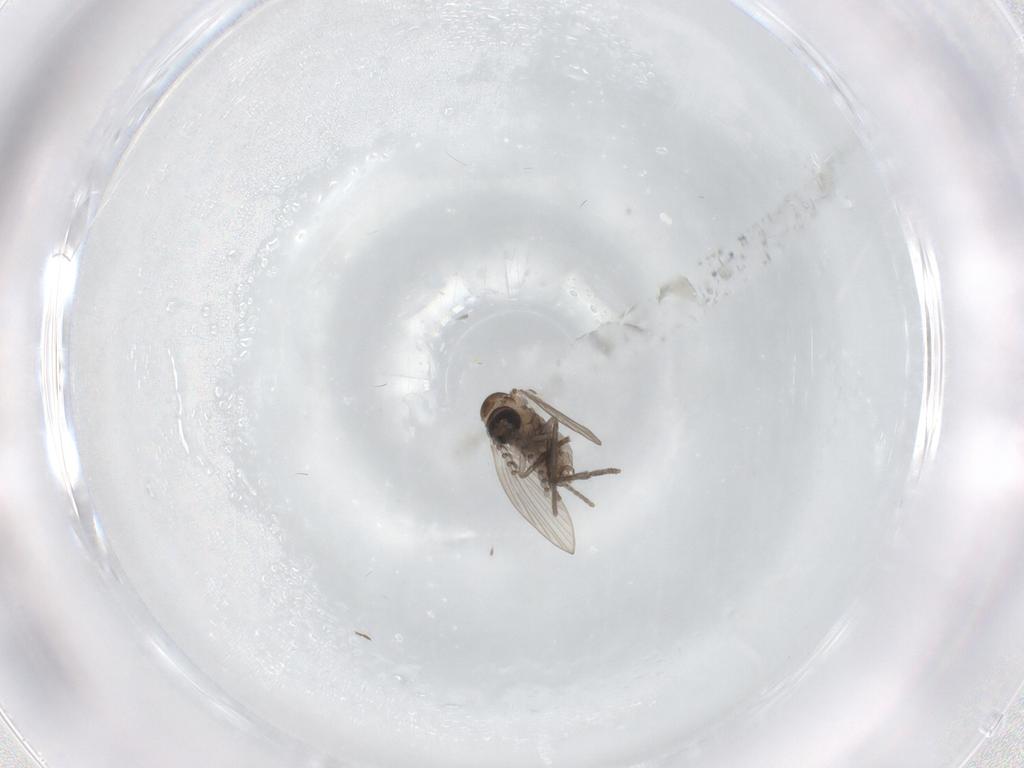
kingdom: Animalia
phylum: Arthropoda
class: Insecta
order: Diptera
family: Psychodidae
